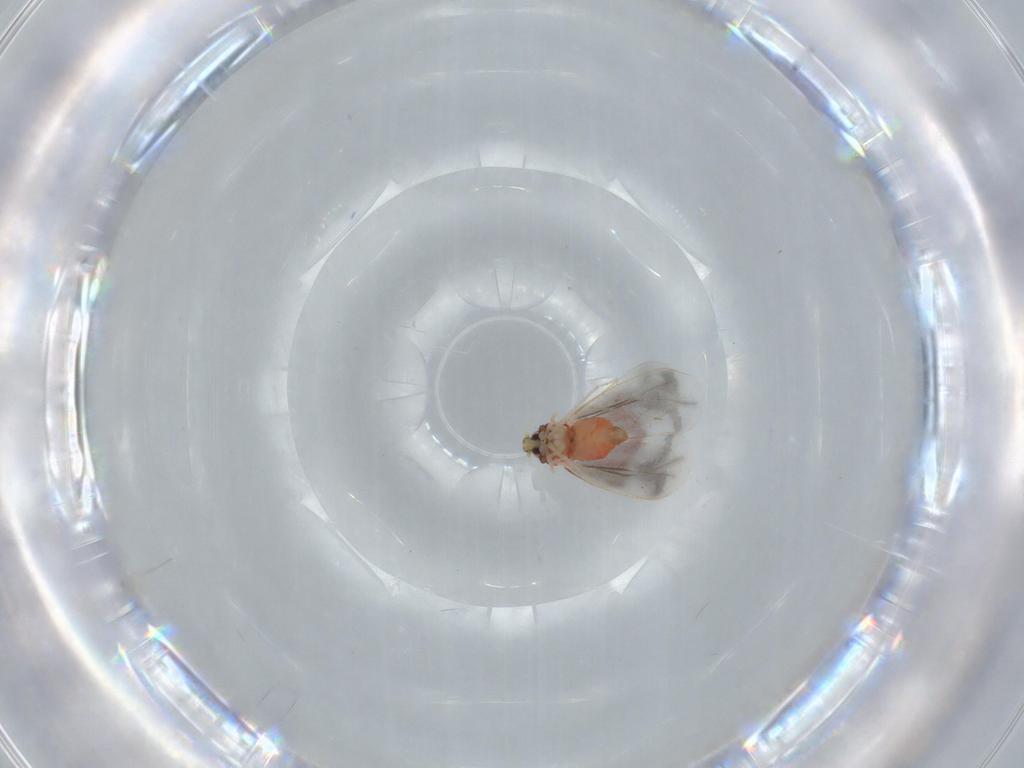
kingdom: Animalia
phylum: Arthropoda
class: Insecta
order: Hemiptera
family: Aleyrodidae
